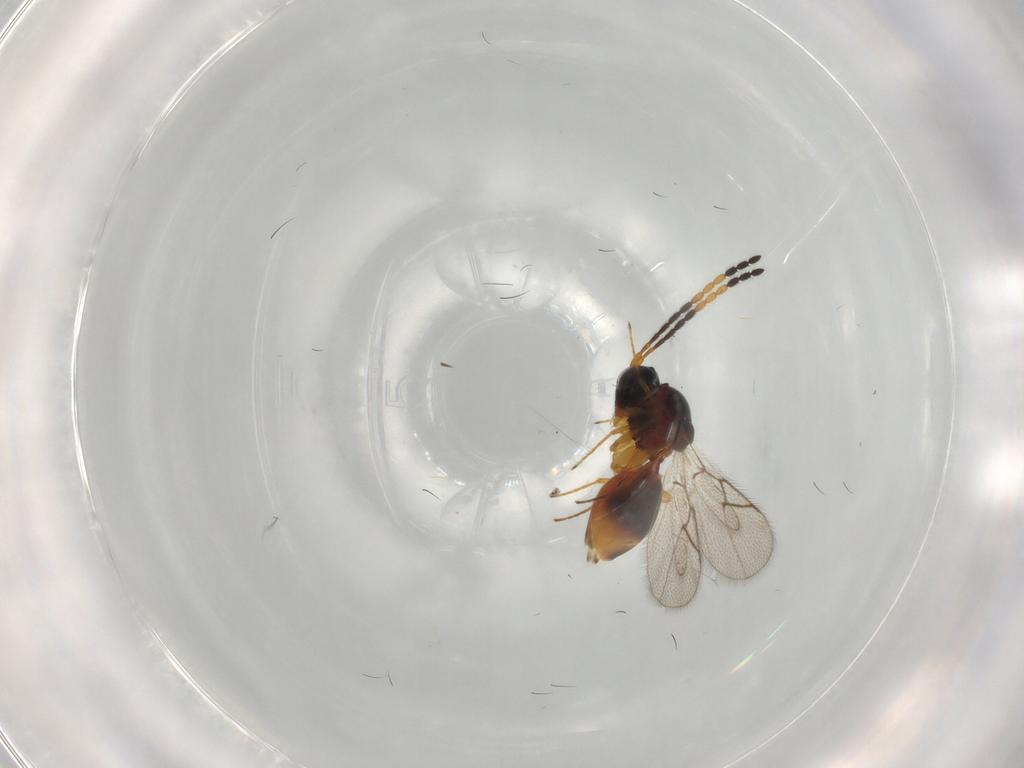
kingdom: Animalia
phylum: Arthropoda
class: Insecta
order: Hymenoptera
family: Figitidae
